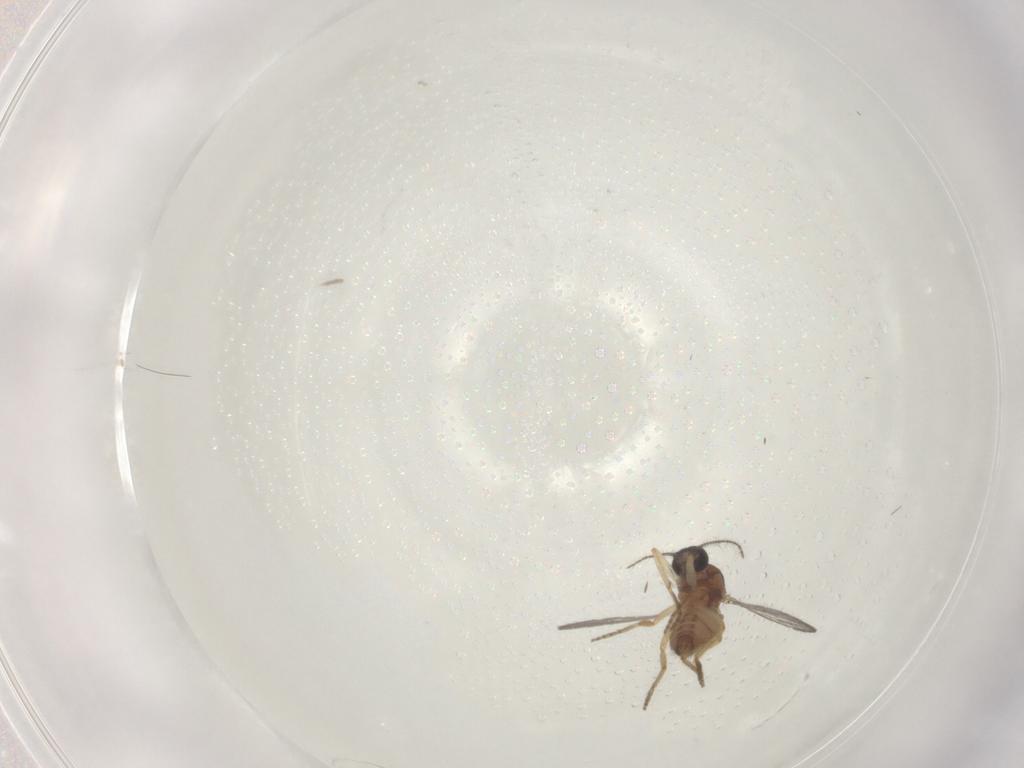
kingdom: Animalia
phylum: Arthropoda
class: Insecta
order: Diptera
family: Ceratopogonidae
